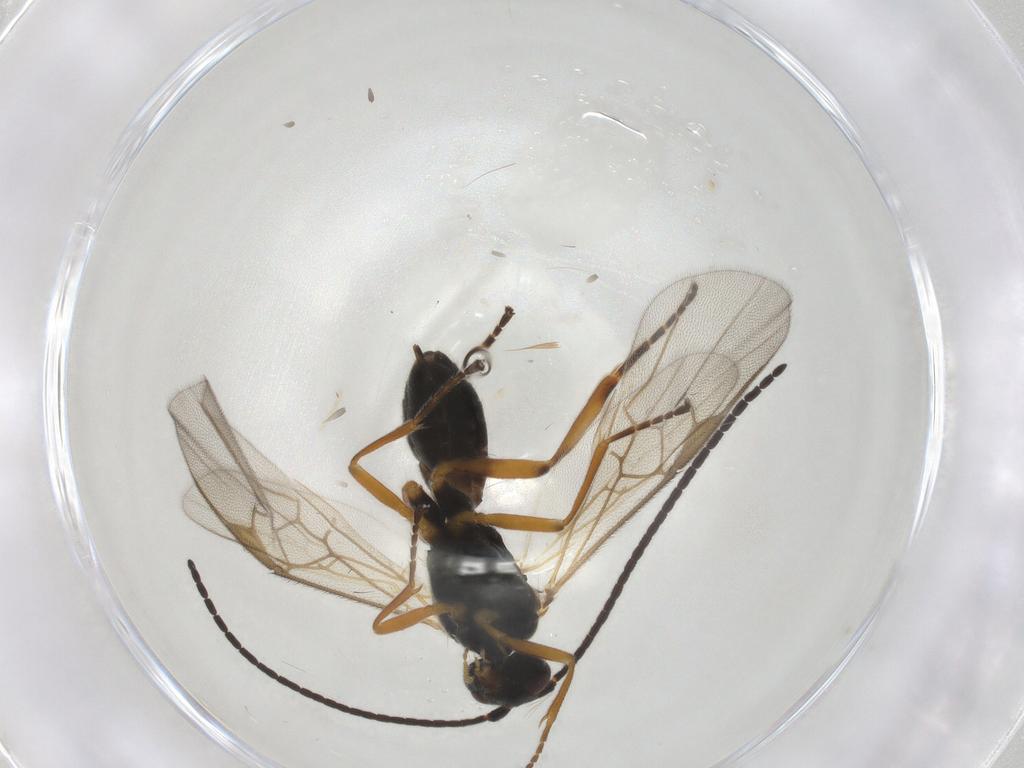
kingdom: Animalia
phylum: Arthropoda
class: Insecta
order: Hymenoptera
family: Braconidae
